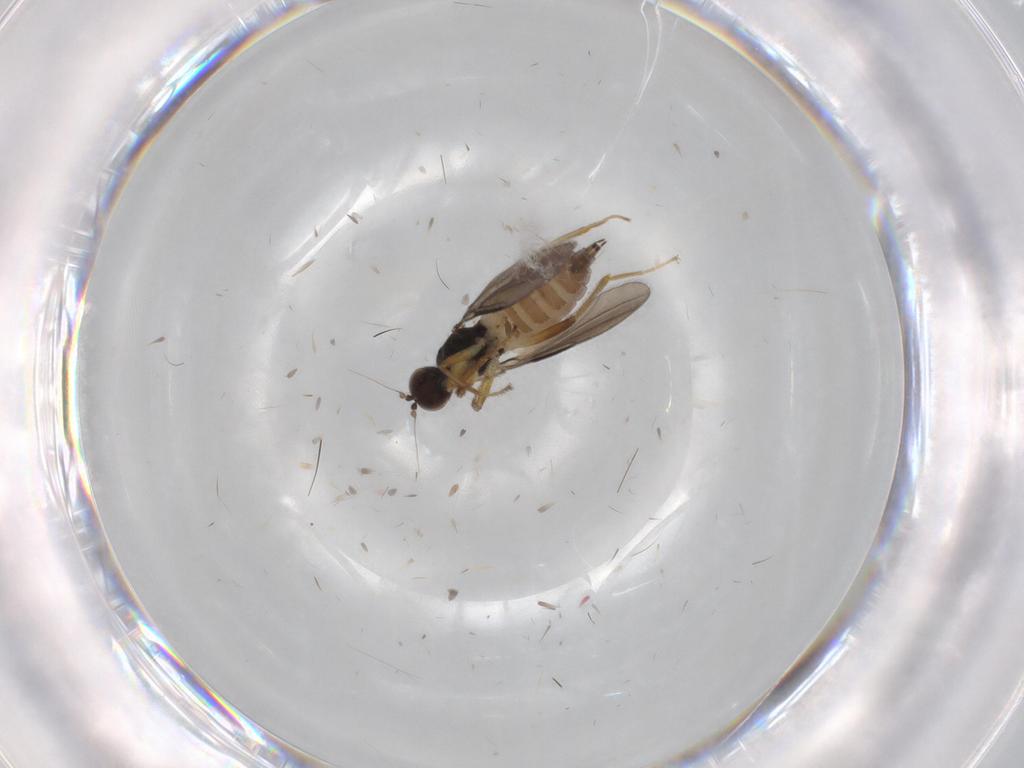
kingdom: Animalia
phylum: Arthropoda
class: Insecta
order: Diptera
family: Hybotidae
